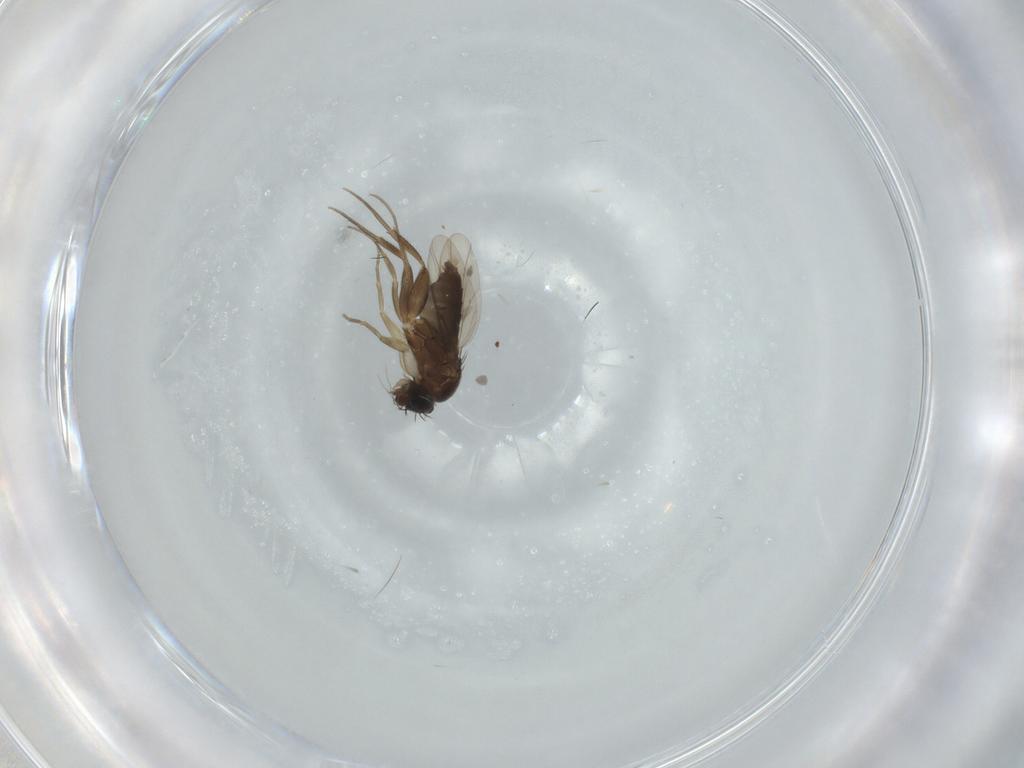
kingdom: Animalia
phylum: Arthropoda
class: Insecta
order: Diptera
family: Phoridae
